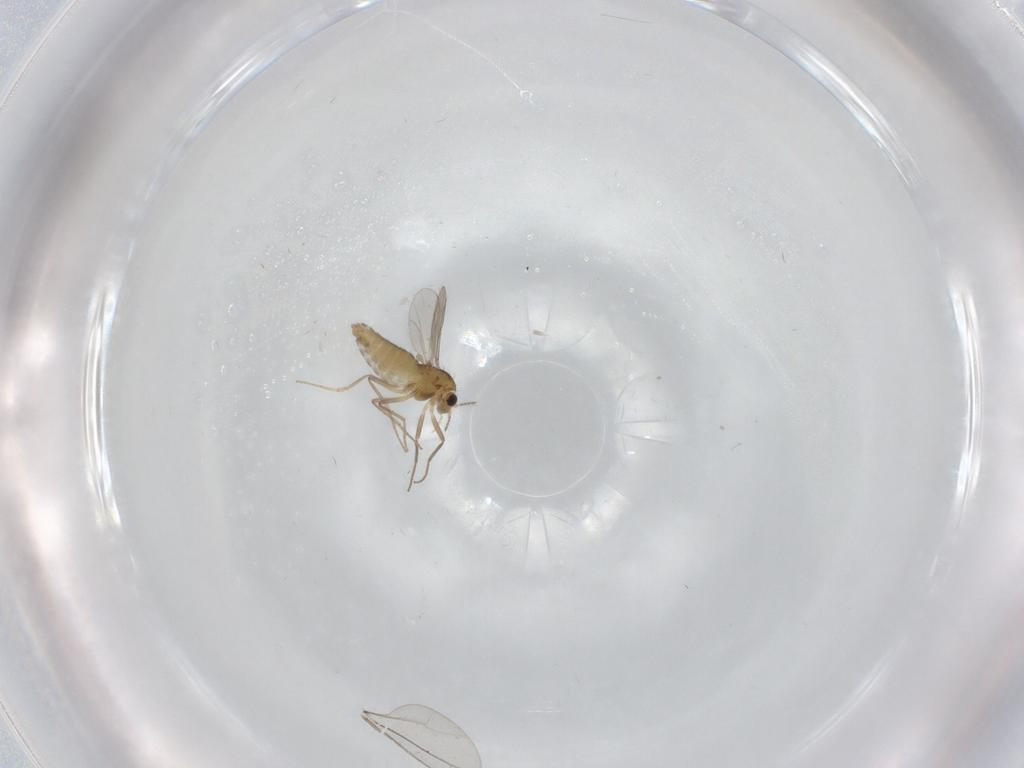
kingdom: Animalia
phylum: Arthropoda
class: Insecta
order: Diptera
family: Chironomidae
